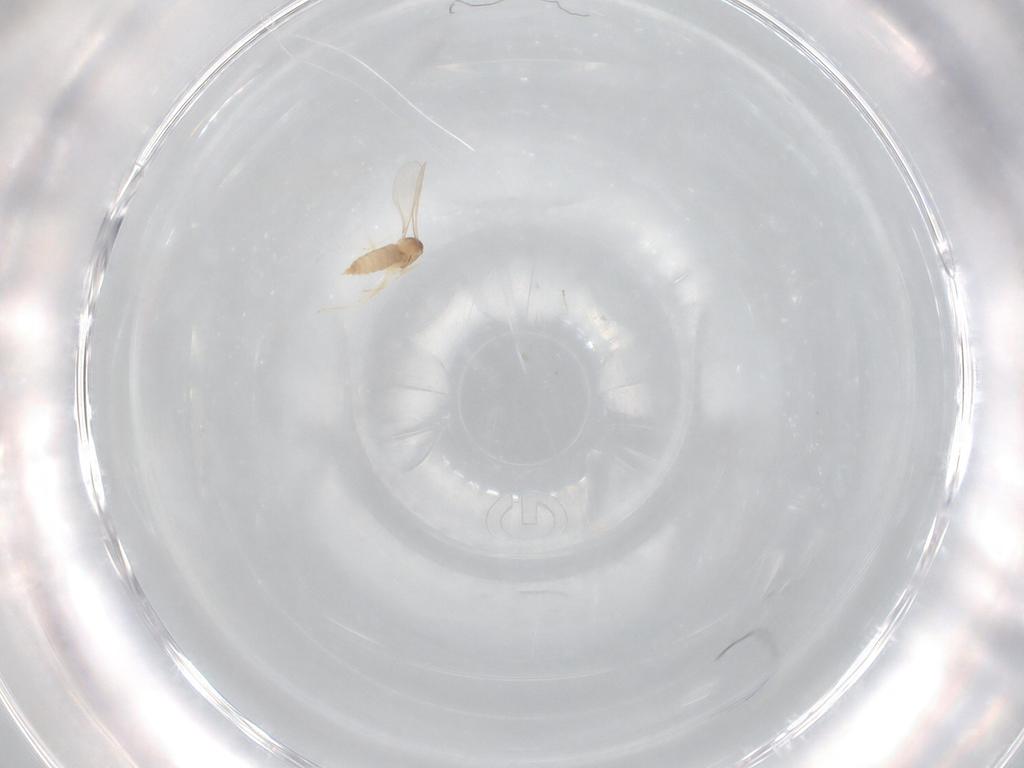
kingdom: Animalia
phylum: Arthropoda
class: Insecta
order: Diptera
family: Cecidomyiidae
